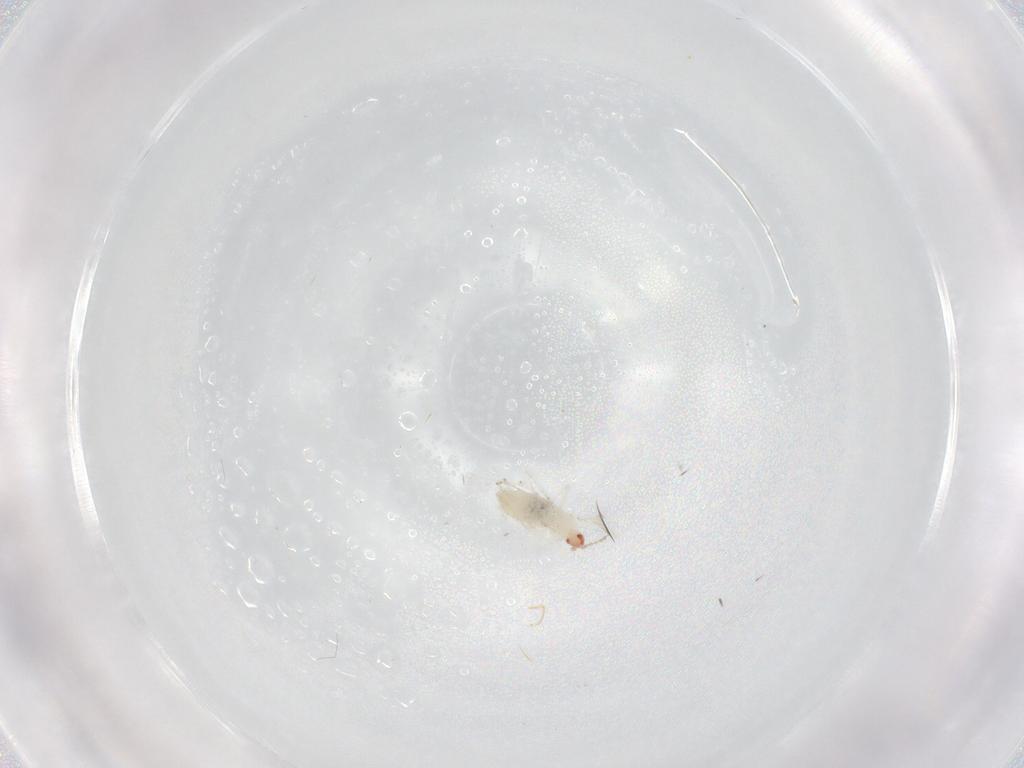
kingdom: Animalia
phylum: Arthropoda
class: Insecta
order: Diptera
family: Cecidomyiidae
